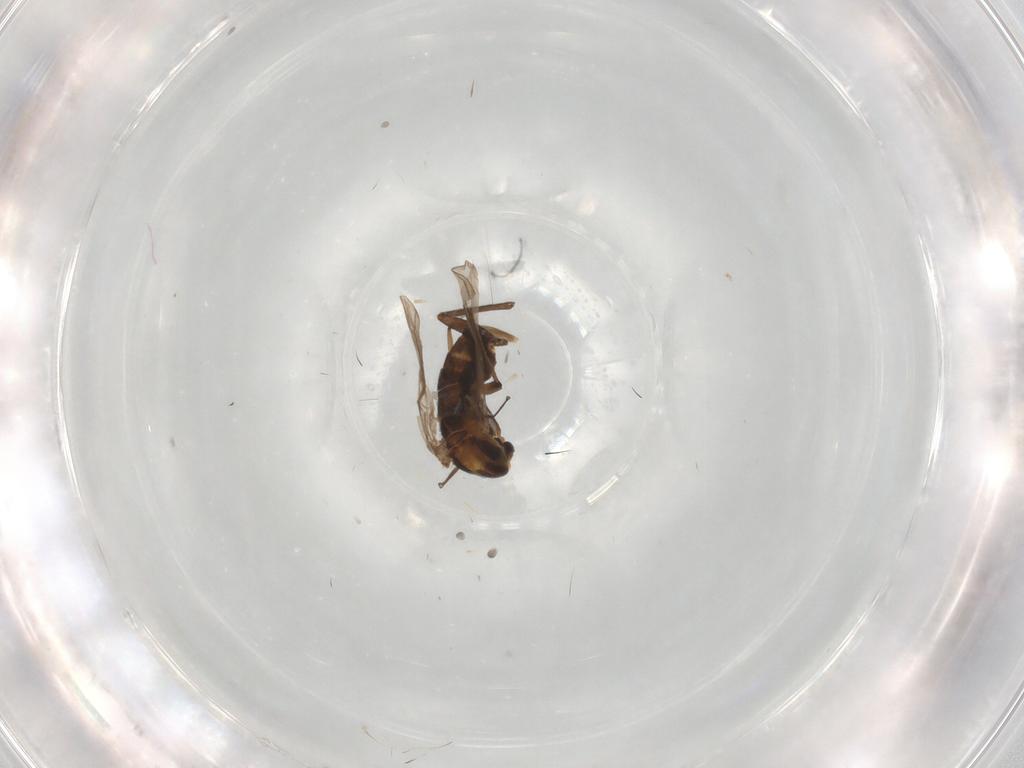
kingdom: Animalia
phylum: Arthropoda
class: Insecta
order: Diptera
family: Chironomidae
